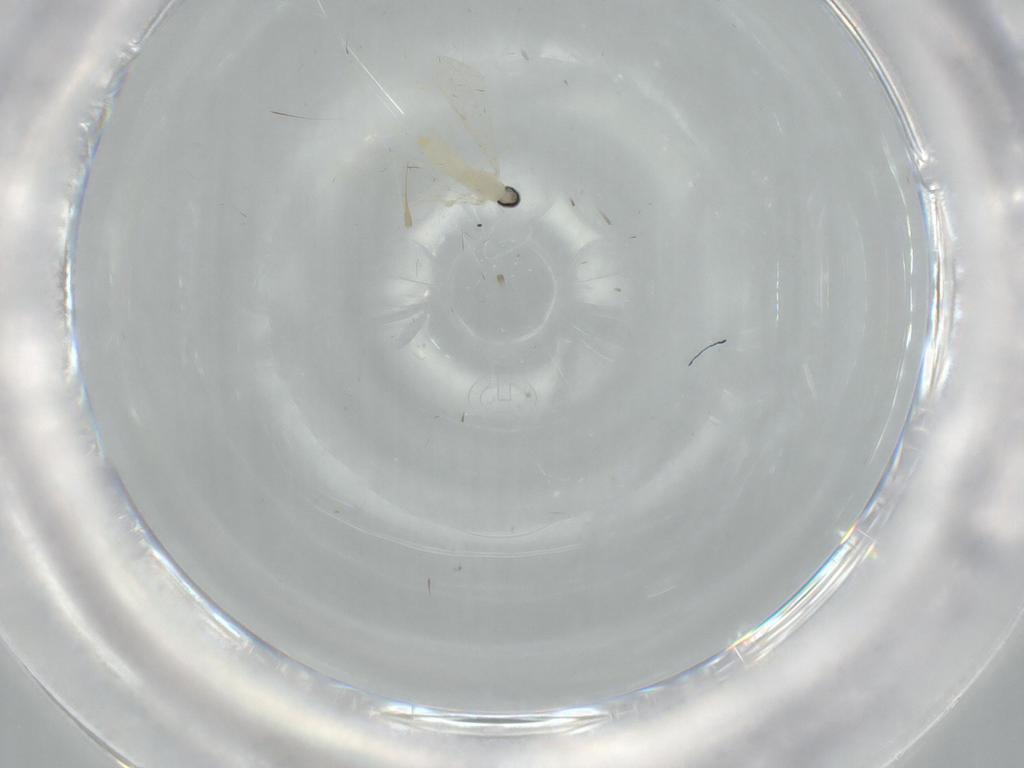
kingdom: Animalia
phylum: Arthropoda
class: Insecta
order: Diptera
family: Cecidomyiidae
